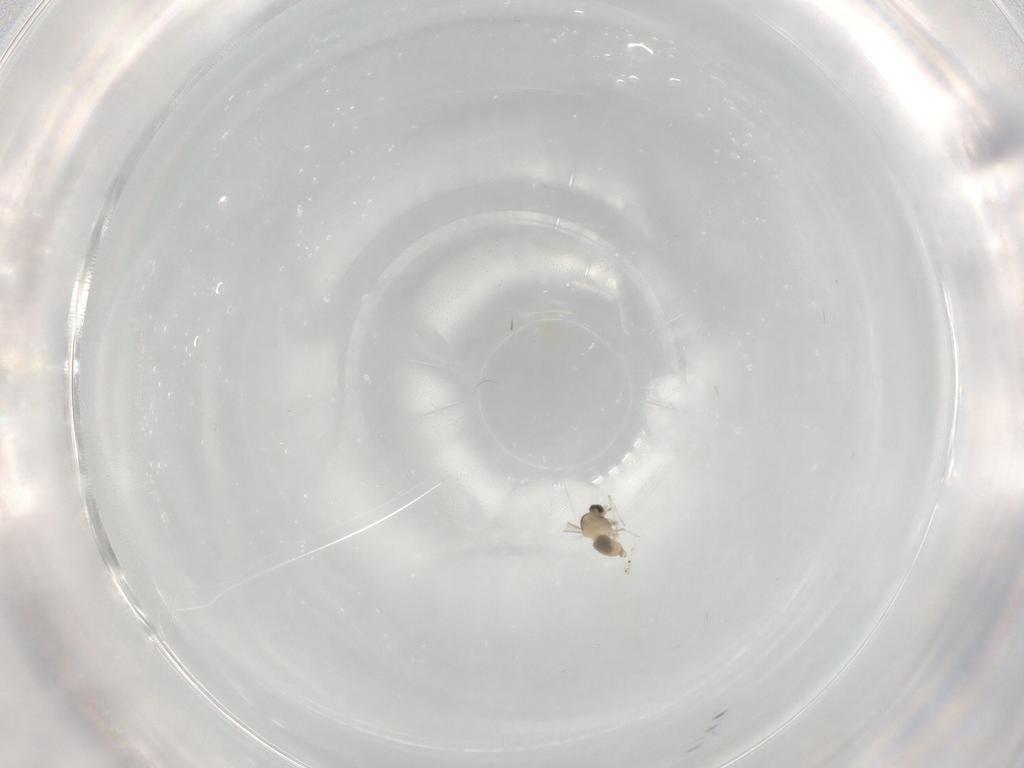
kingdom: Animalia
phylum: Arthropoda
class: Insecta
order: Diptera
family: Cecidomyiidae
